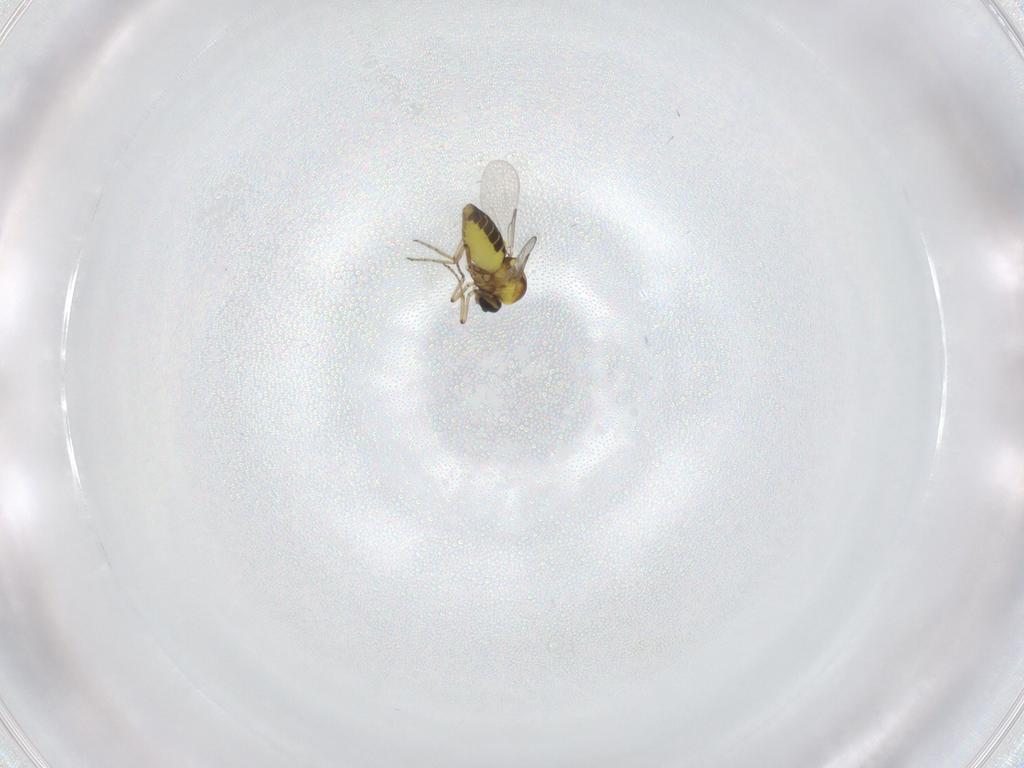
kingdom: Animalia
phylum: Arthropoda
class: Insecta
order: Diptera
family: Ceratopogonidae
